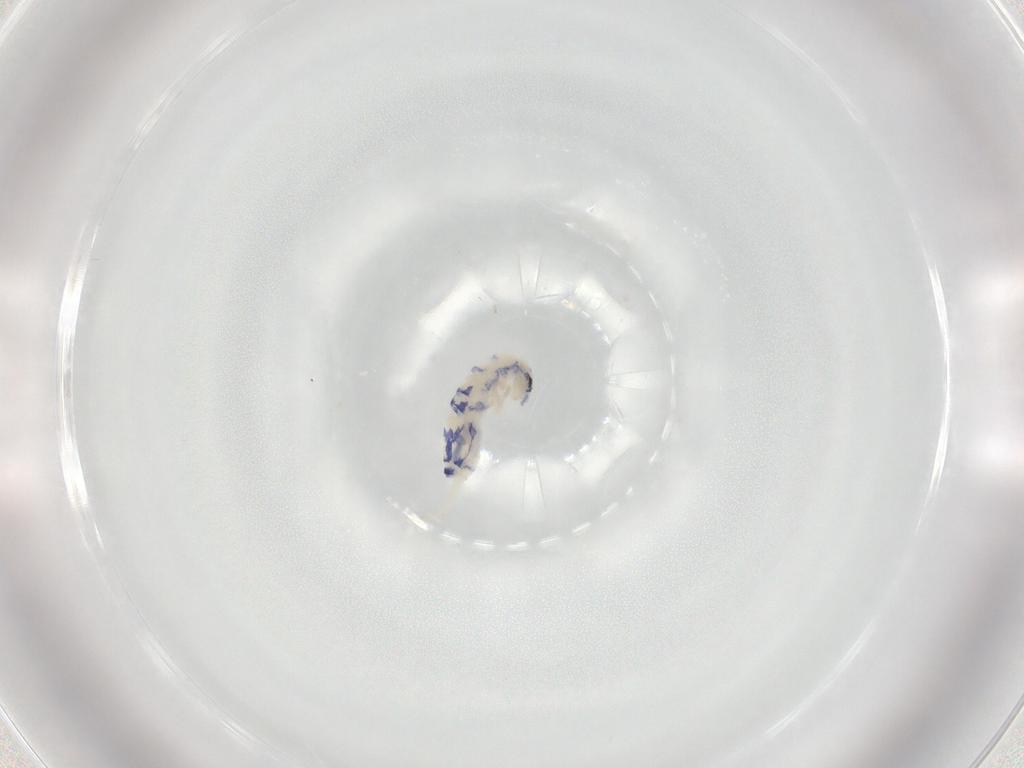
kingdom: Animalia
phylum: Arthropoda
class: Collembola
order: Entomobryomorpha
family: Entomobryidae
